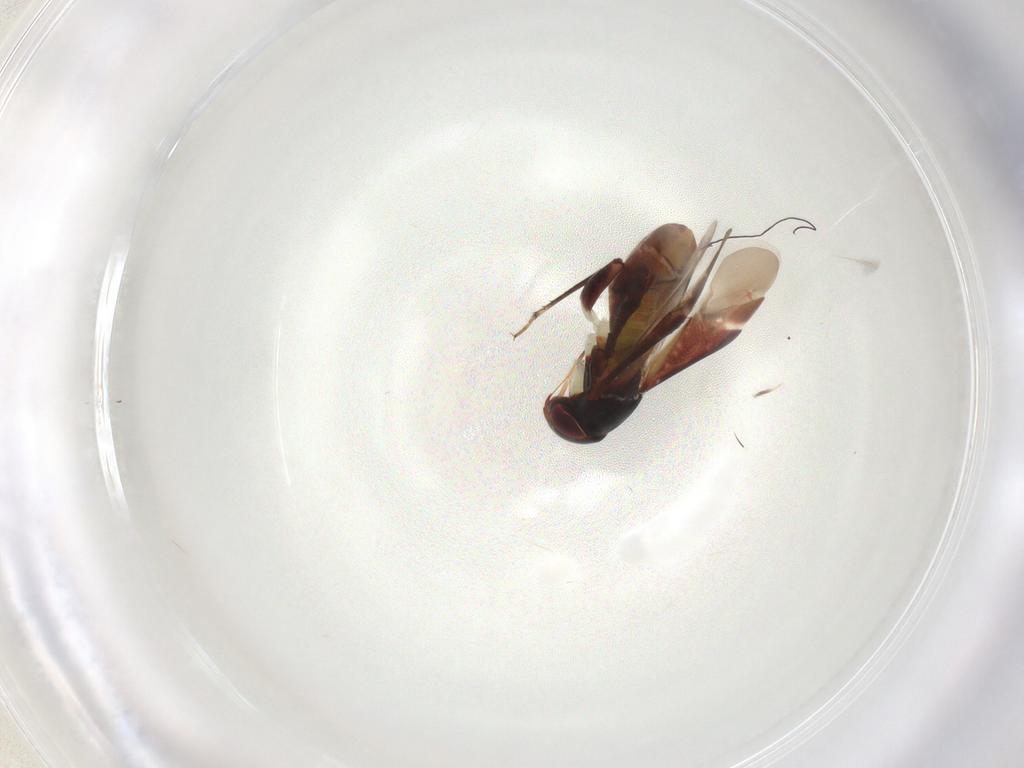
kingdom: Animalia
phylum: Arthropoda
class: Insecta
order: Hemiptera
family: Miridae
